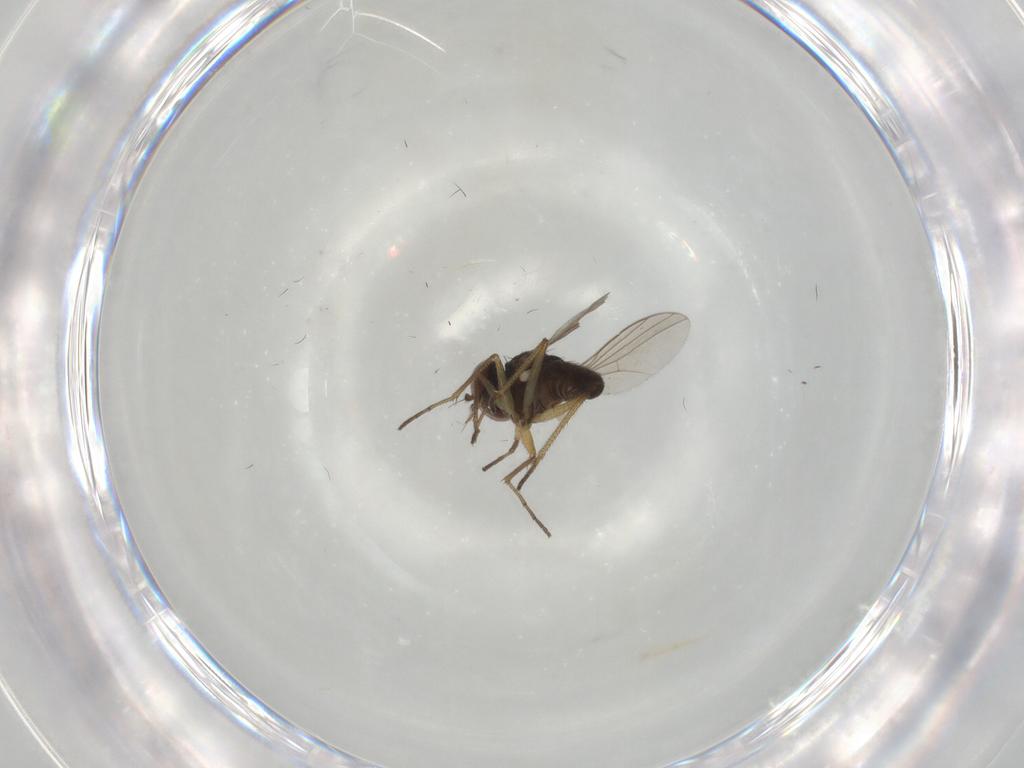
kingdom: Animalia
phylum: Arthropoda
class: Insecta
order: Diptera
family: Dolichopodidae
